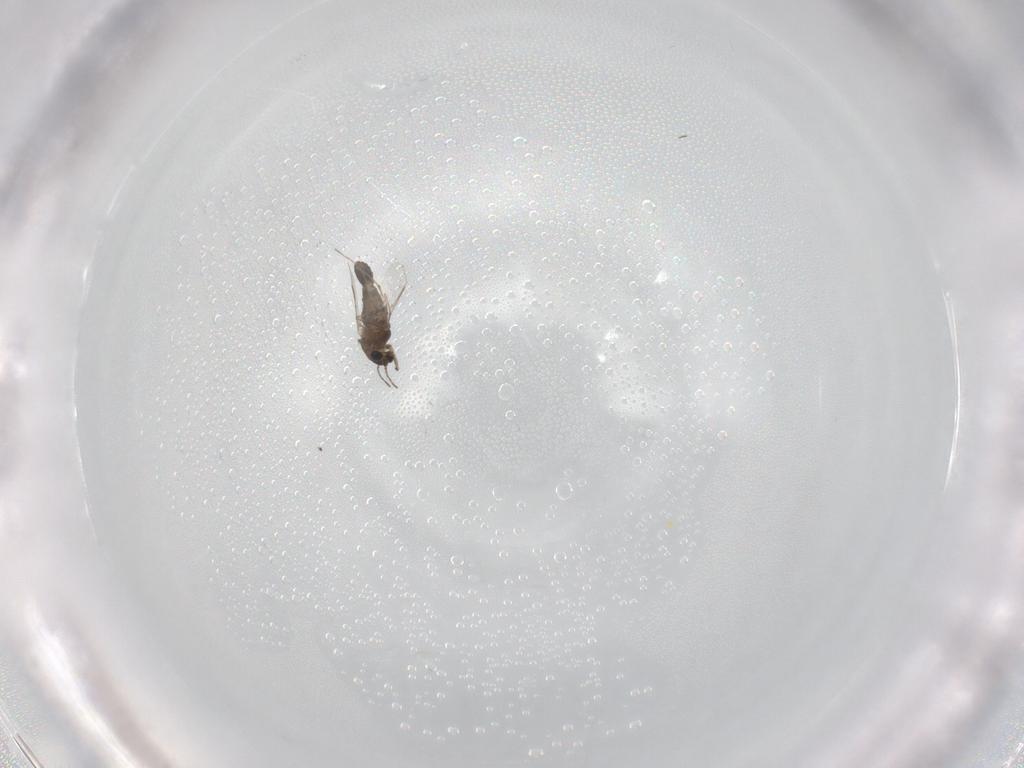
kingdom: Animalia
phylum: Arthropoda
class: Insecta
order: Diptera
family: Chironomidae
